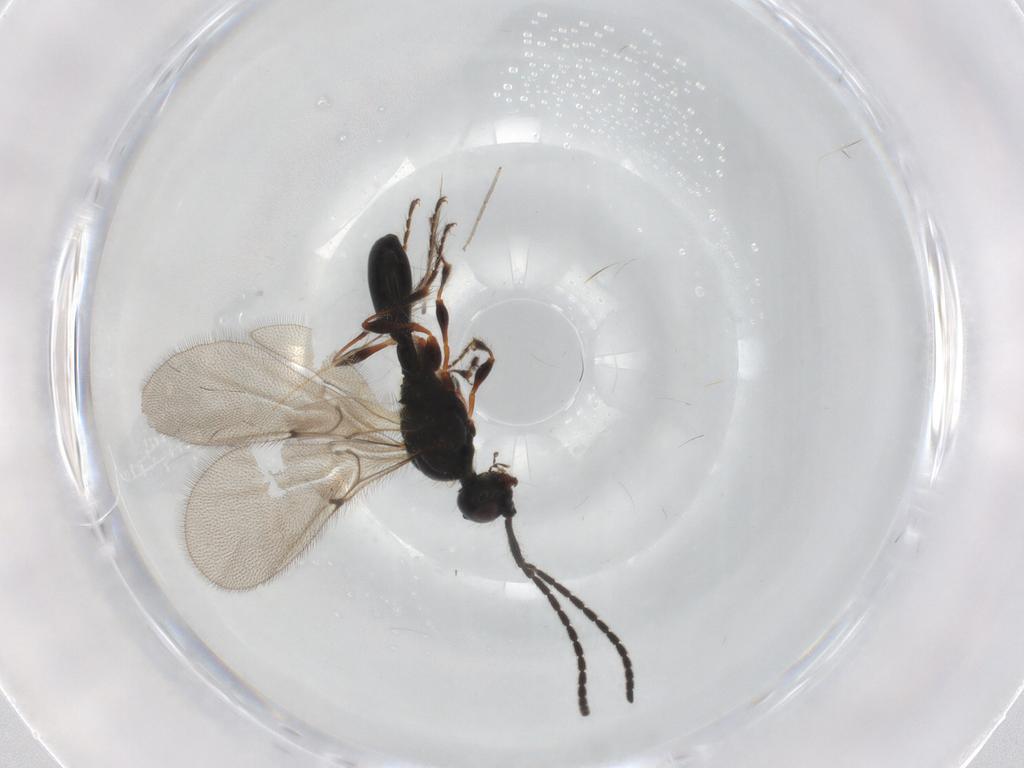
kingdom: Animalia
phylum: Arthropoda
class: Insecta
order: Hymenoptera
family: Diapriidae
